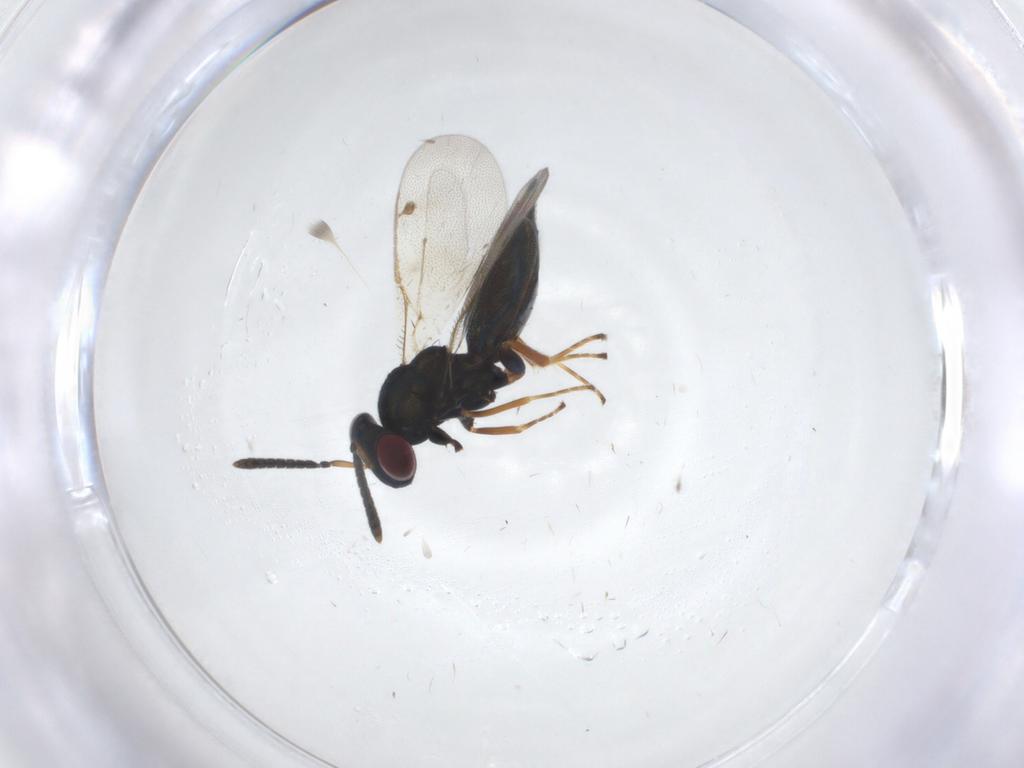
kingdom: Animalia
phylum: Arthropoda
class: Insecta
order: Hymenoptera
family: Pteromalidae
